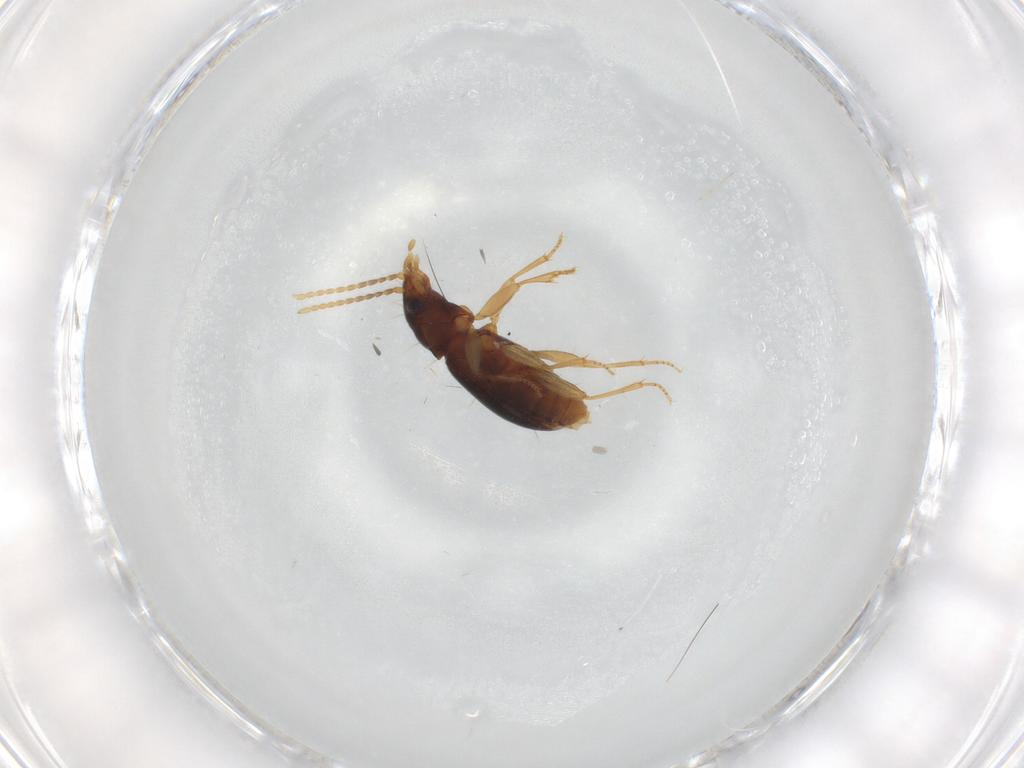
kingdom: Animalia
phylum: Arthropoda
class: Insecta
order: Coleoptera
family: Carabidae
